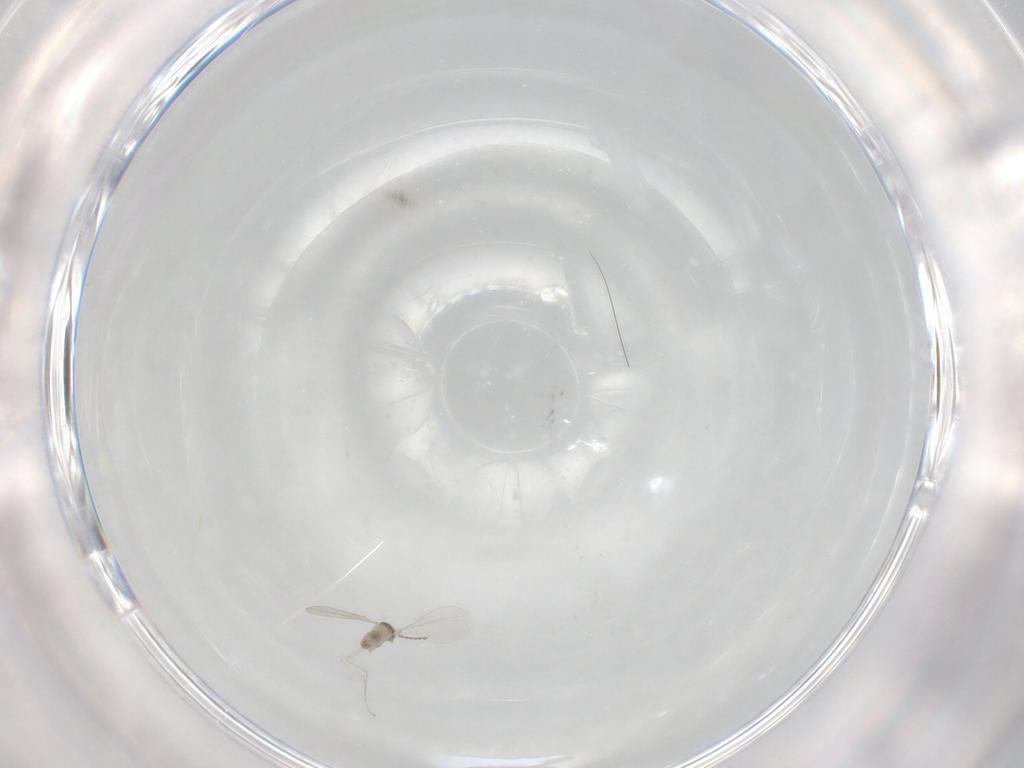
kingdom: Animalia
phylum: Arthropoda
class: Insecta
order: Diptera
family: Cecidomyiidae
